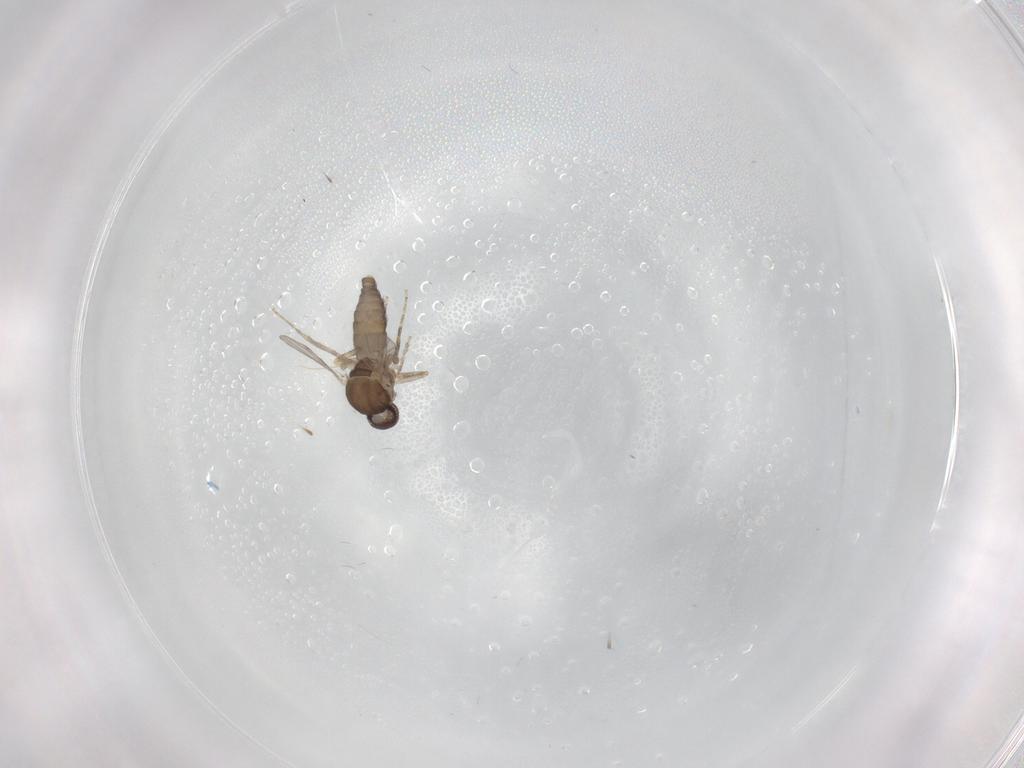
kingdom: Animalia
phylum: Arthropoda
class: Insecta
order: Diptera
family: Ceratopogonidae
